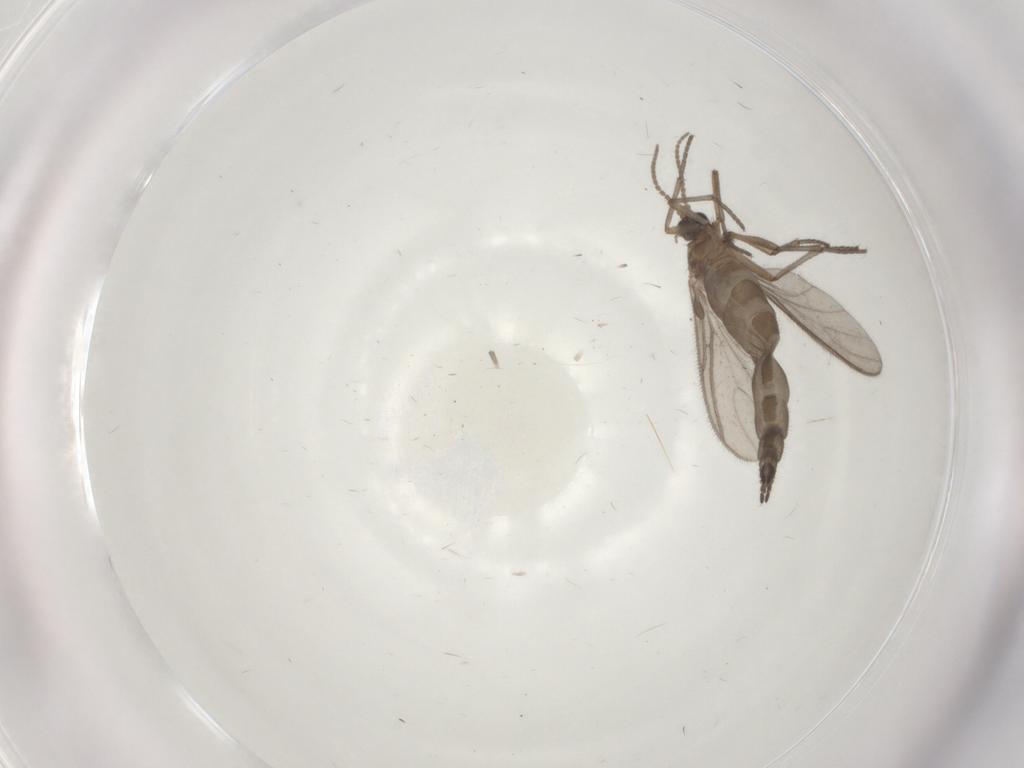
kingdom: Animalia
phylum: Arthropoda
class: Insecta
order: Diptera
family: Sciaridae
